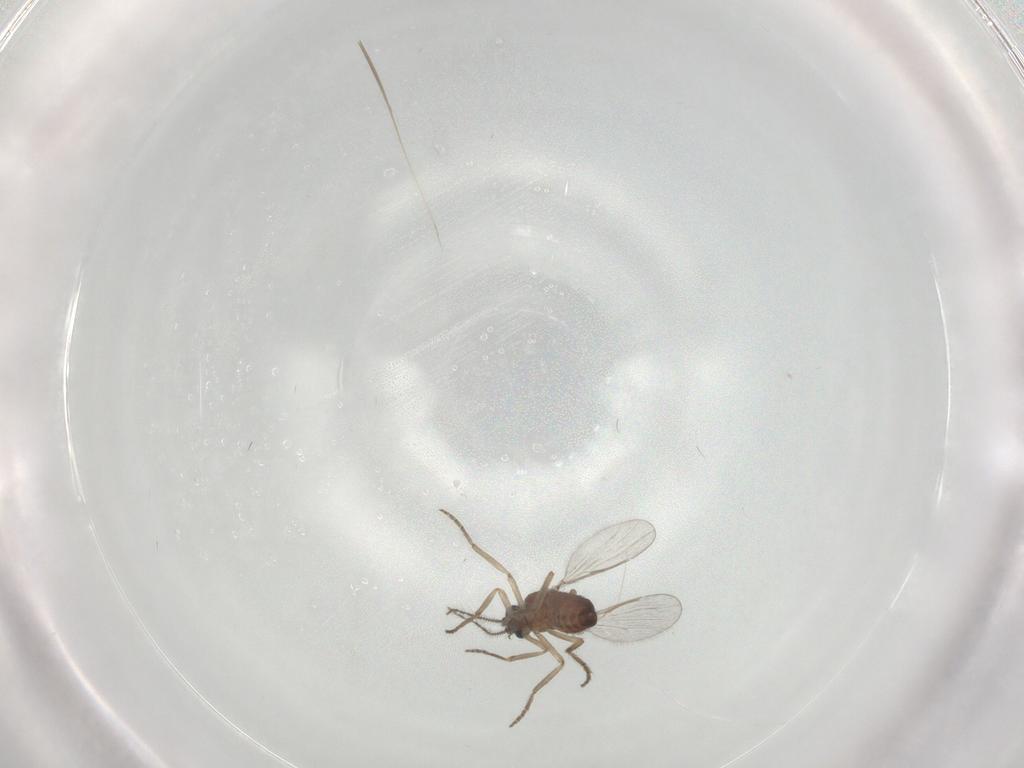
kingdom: Animalia
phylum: Arthropoda
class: Insecta
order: Diptera
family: Ceratopogonidae
